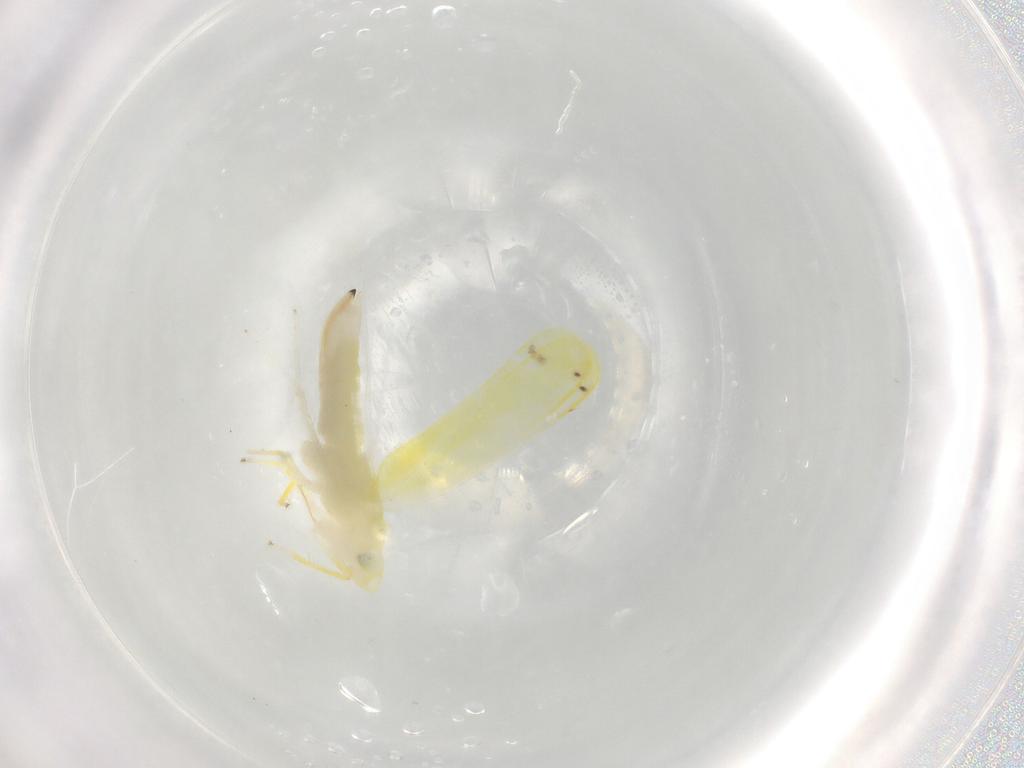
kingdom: Animalia
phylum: Arthropoda
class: Insecta
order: Hemiptera
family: Cicadellidae
